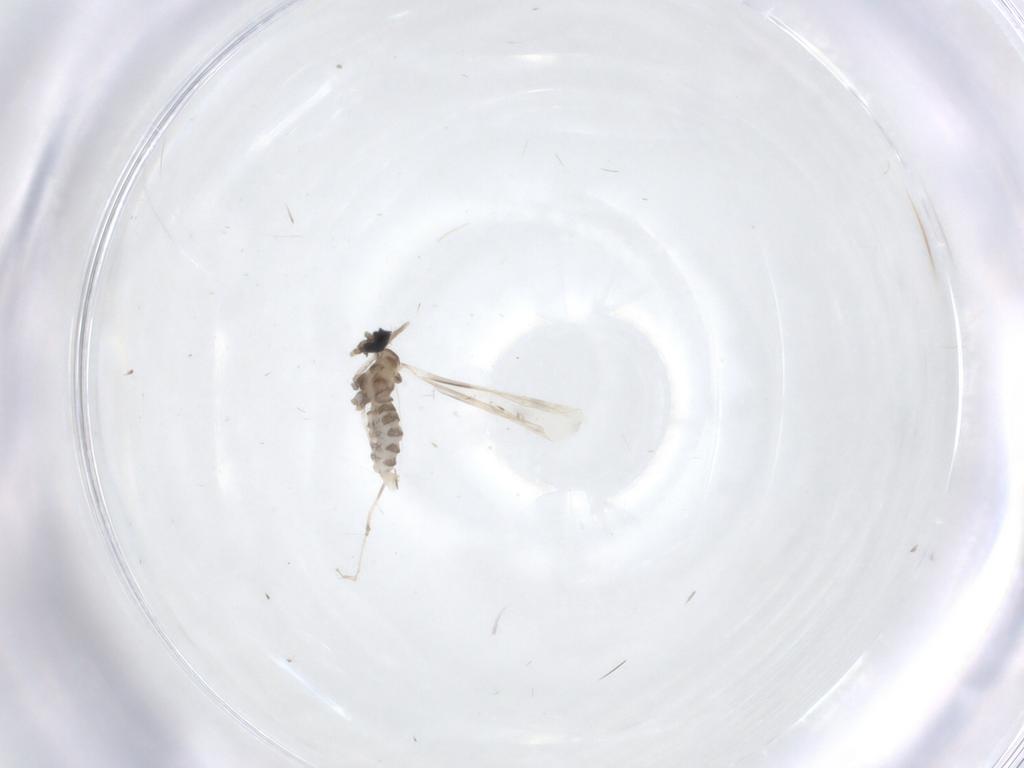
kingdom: Animalia
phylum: Arthropoda
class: Insecta
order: Diptera
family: Cecidomyiidae
